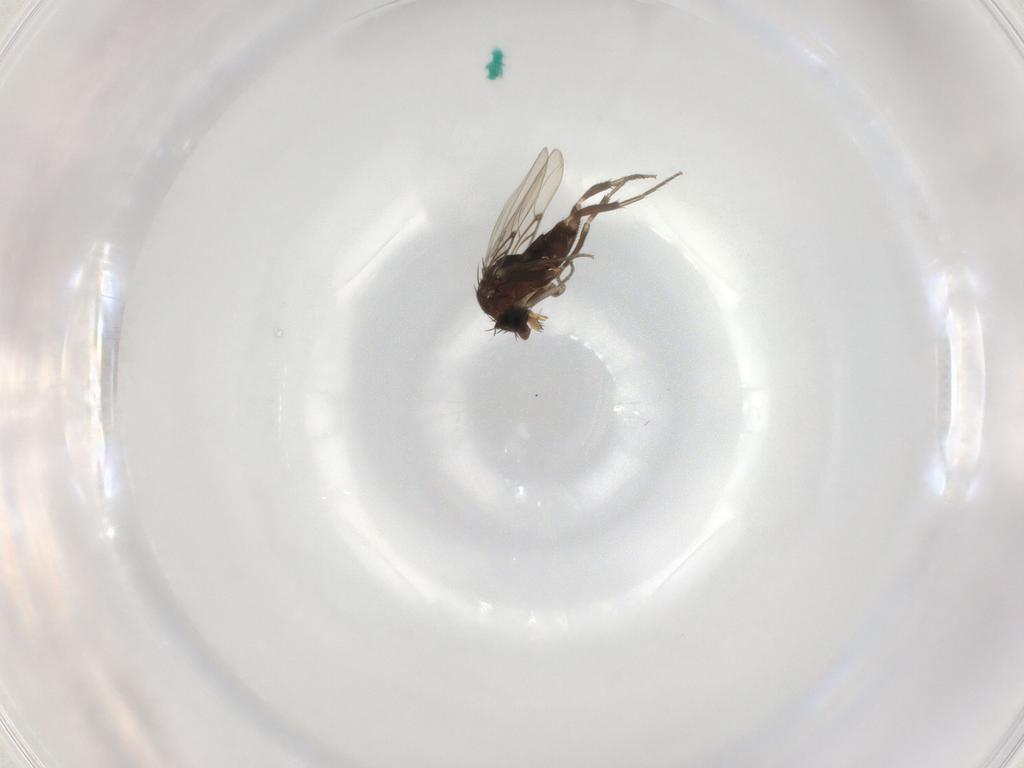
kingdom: Animalia
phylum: Arthropoda
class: Insecta
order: Diptera
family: Phoridae
